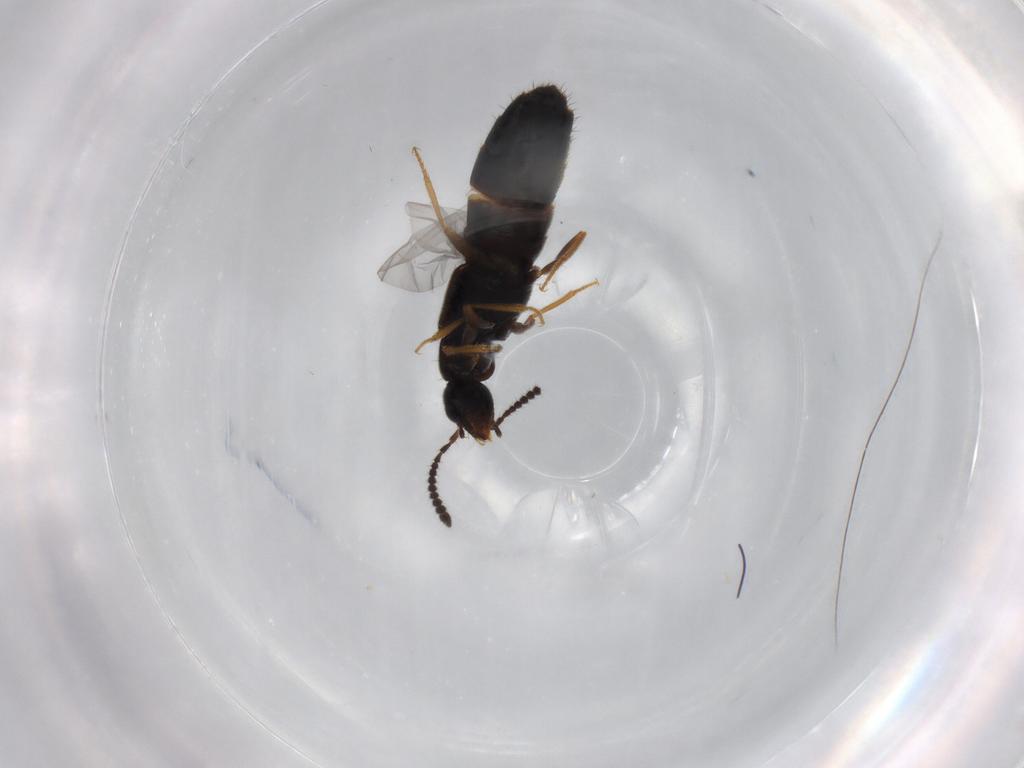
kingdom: Animalia
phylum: Arthropoda
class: Insecta
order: Coleoptera
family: Staphylinidae
